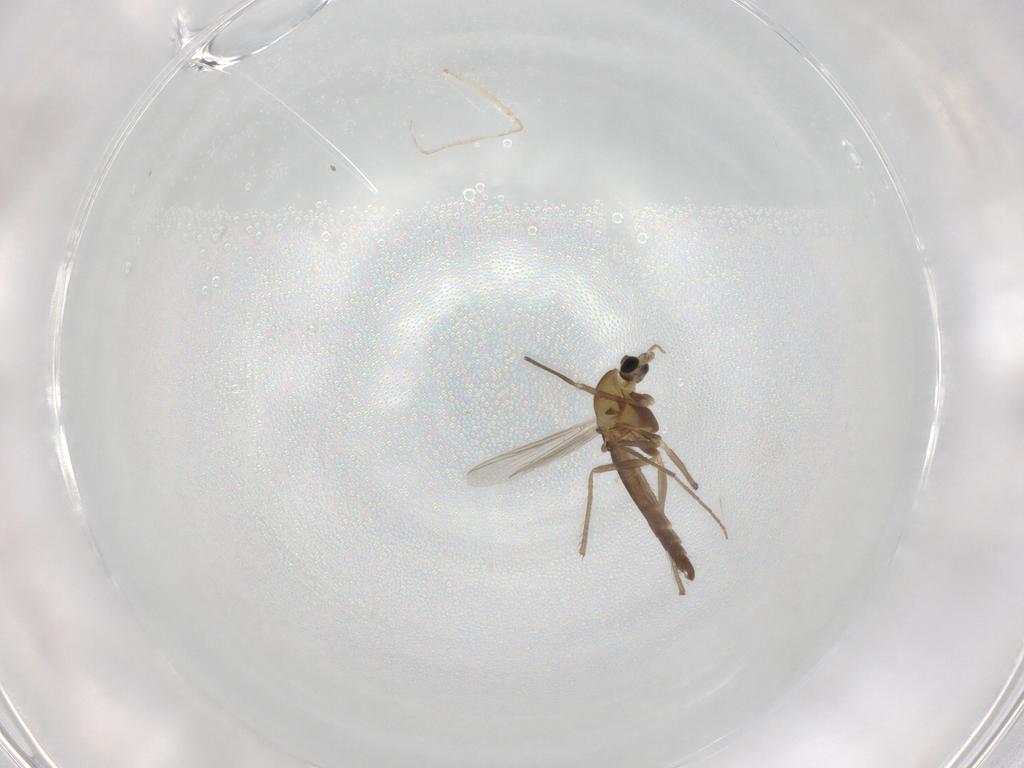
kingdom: Animalia
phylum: Arthropoda
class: Insecta
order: Diptera
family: Chironomidae
